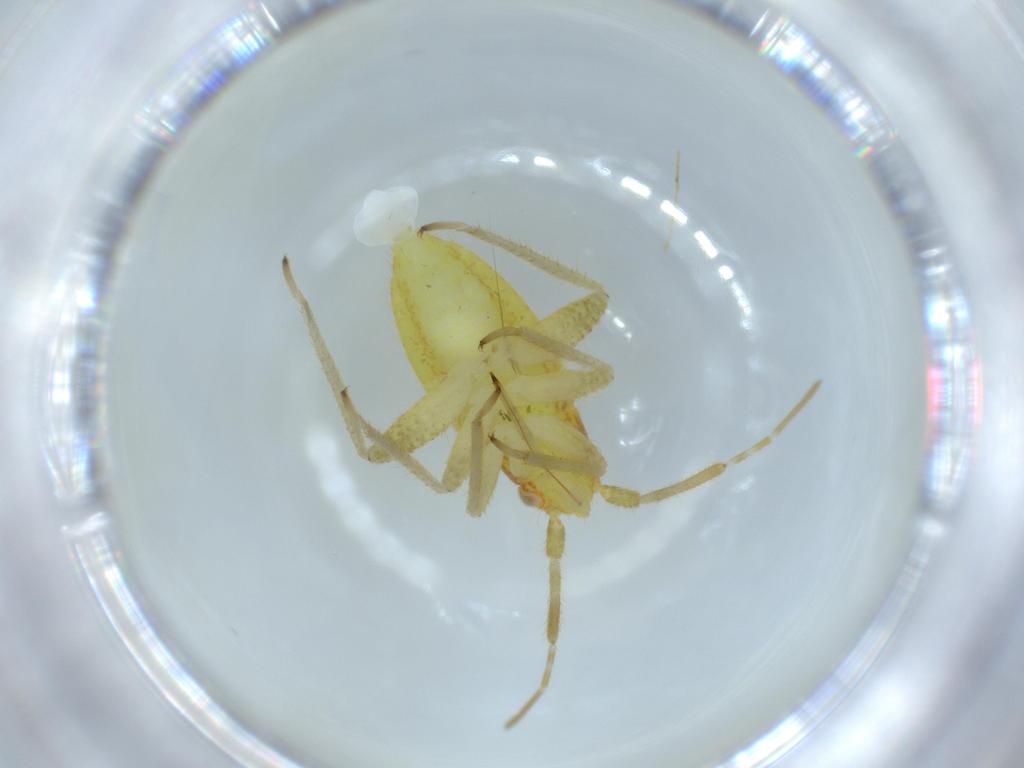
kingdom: Animalia
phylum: Arthropoda
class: Insecta
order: Hemiptera
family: Miridae
